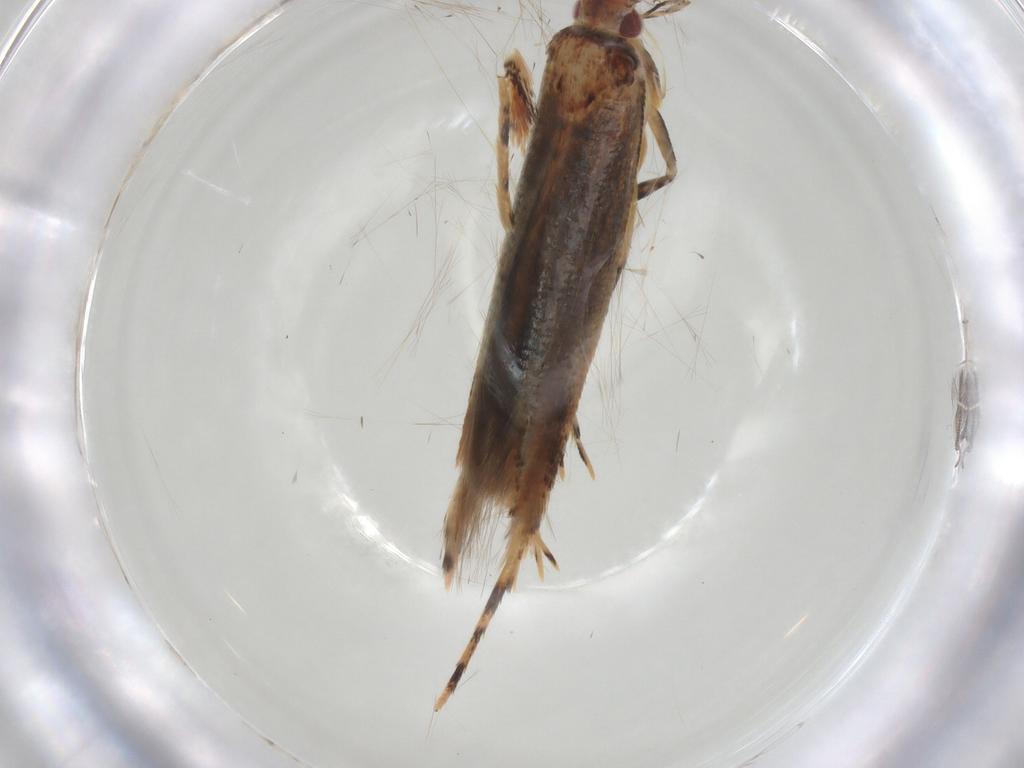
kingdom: Animalia
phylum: Arthropoda
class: Insecta
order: Lepidoptera
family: Cosmopterigidae
